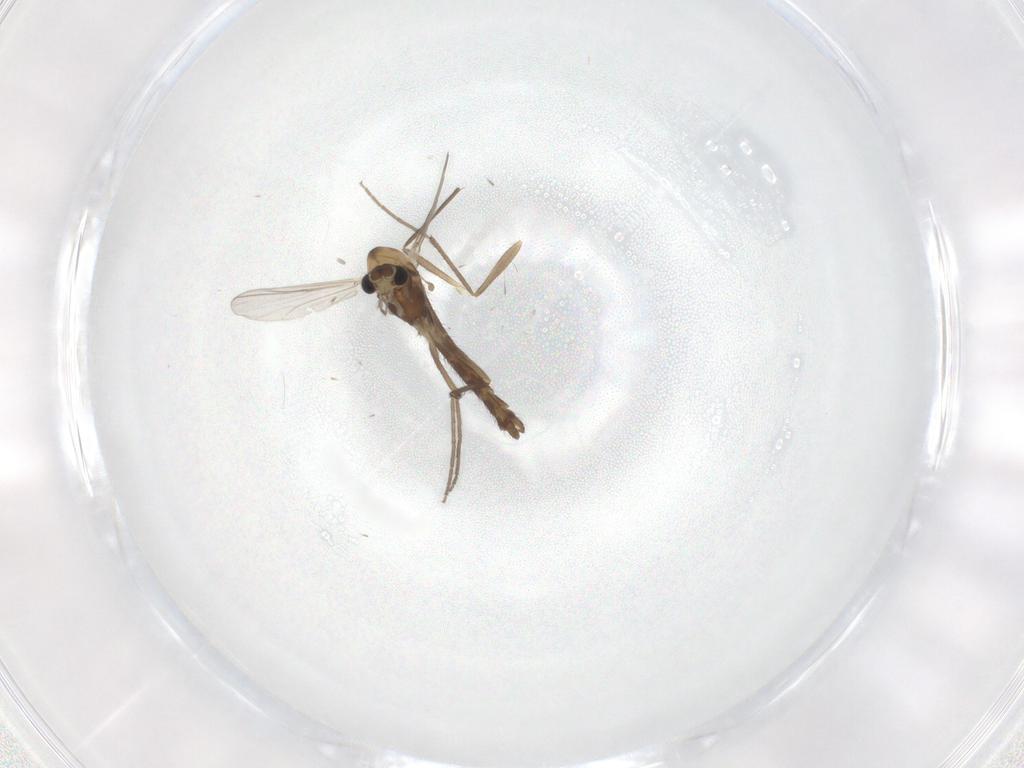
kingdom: Animalia
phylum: Arthropoda
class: Insecta
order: Diptera
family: Chironomidae
